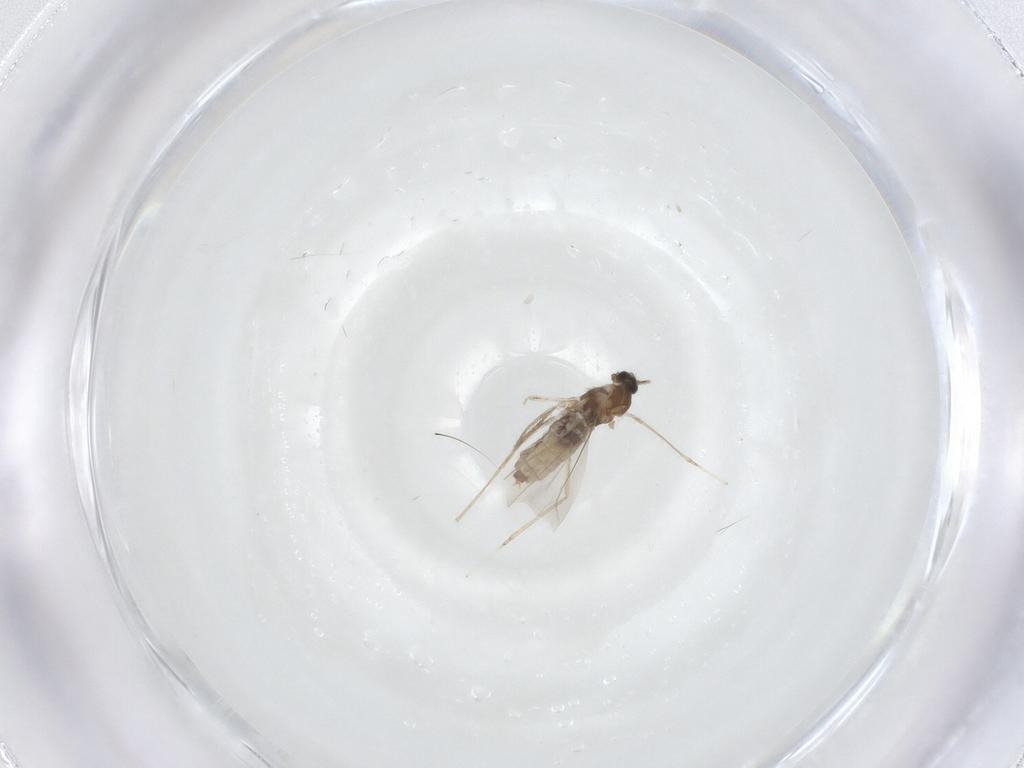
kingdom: Animalia
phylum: Arthropoda
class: Insecta
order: Diptera
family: Cecidomyiidae
